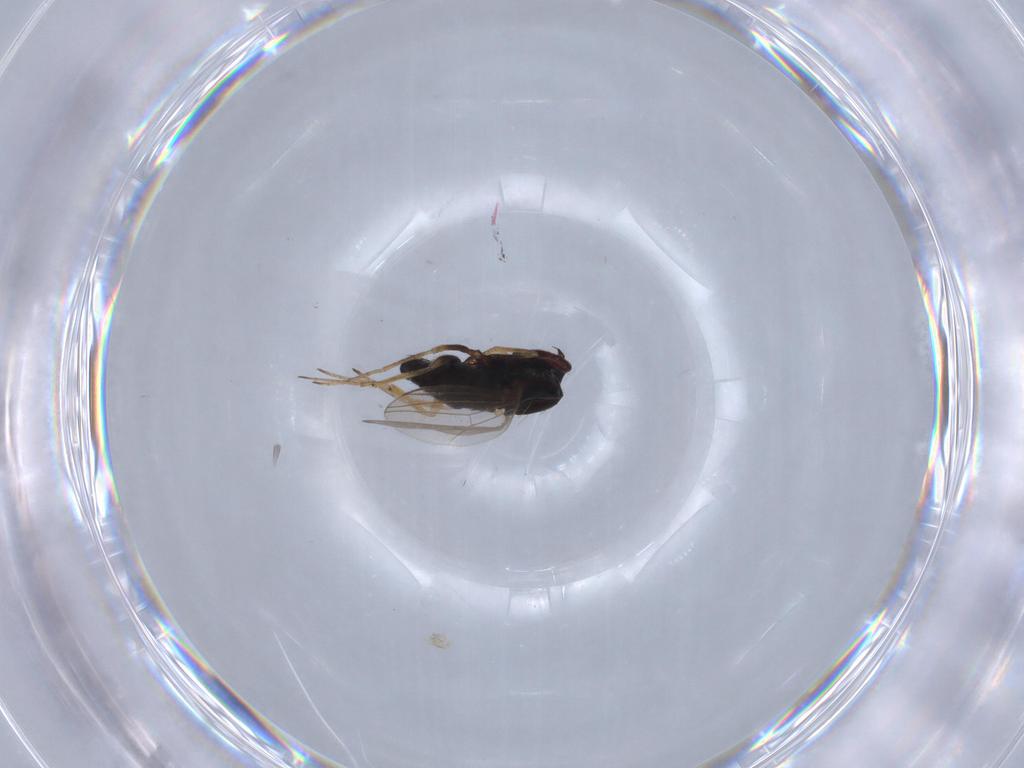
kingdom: Animalia
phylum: Arthropoda
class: Insecta
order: Diptera
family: Dolichopodidae
